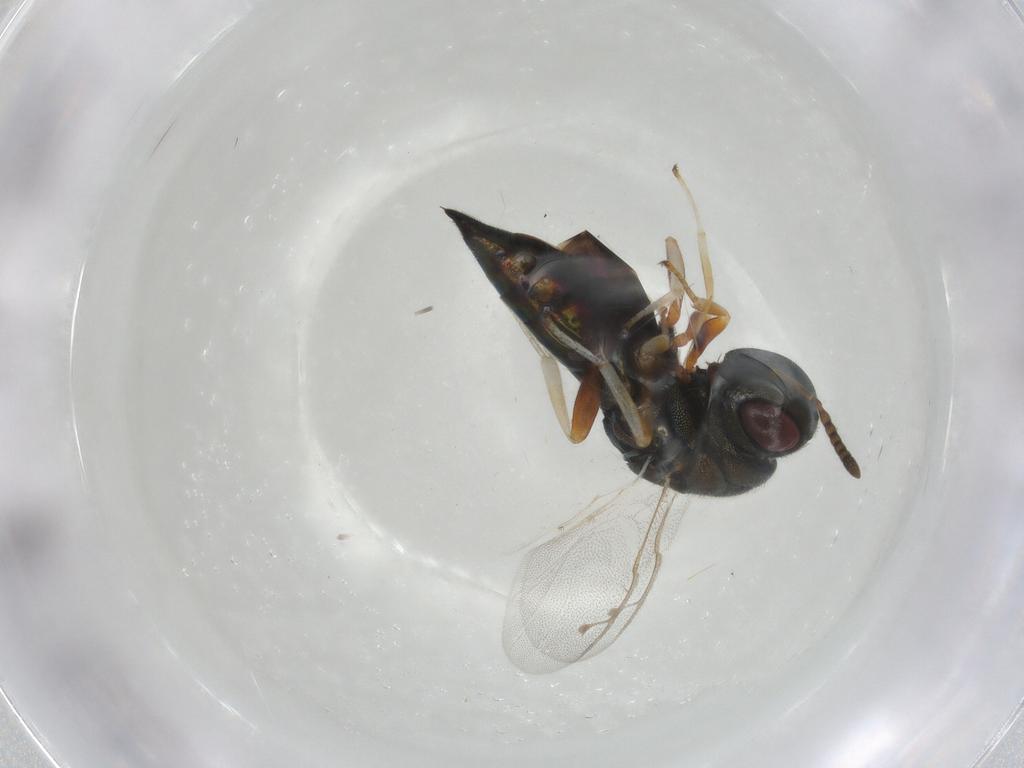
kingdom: Animalia
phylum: Arthropoda
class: Insecta
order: Hymenoptera
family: Pteromalidae
